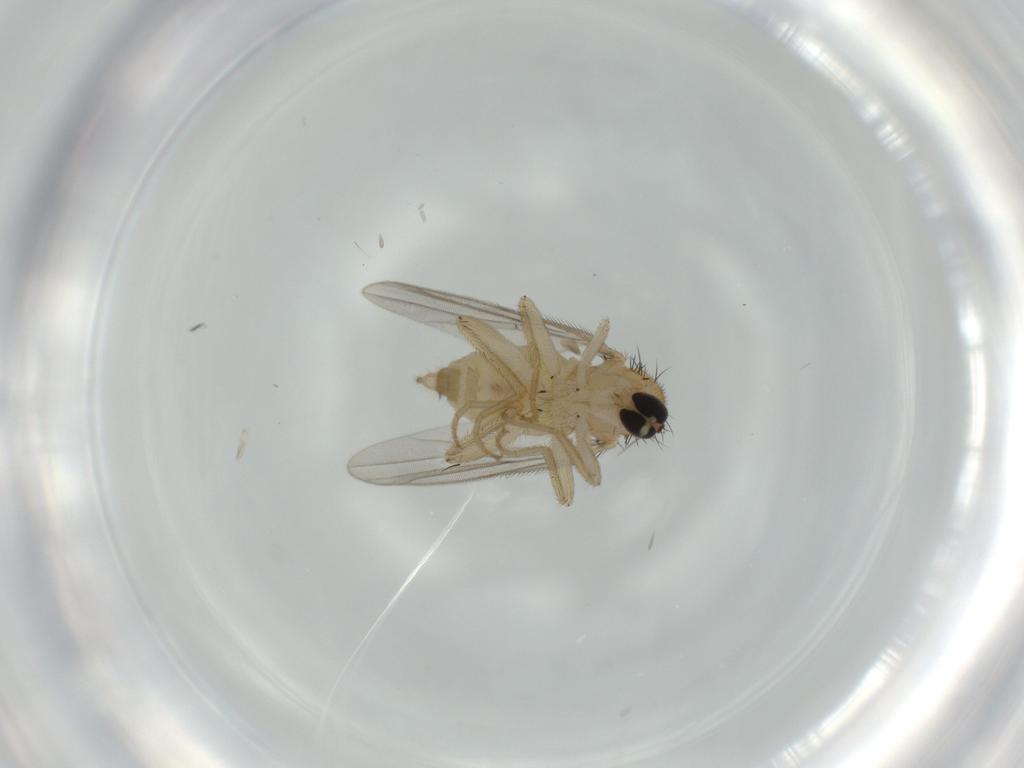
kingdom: Animalia
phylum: Arthropoda
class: Insecta
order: Diptera
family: Hybotidae
